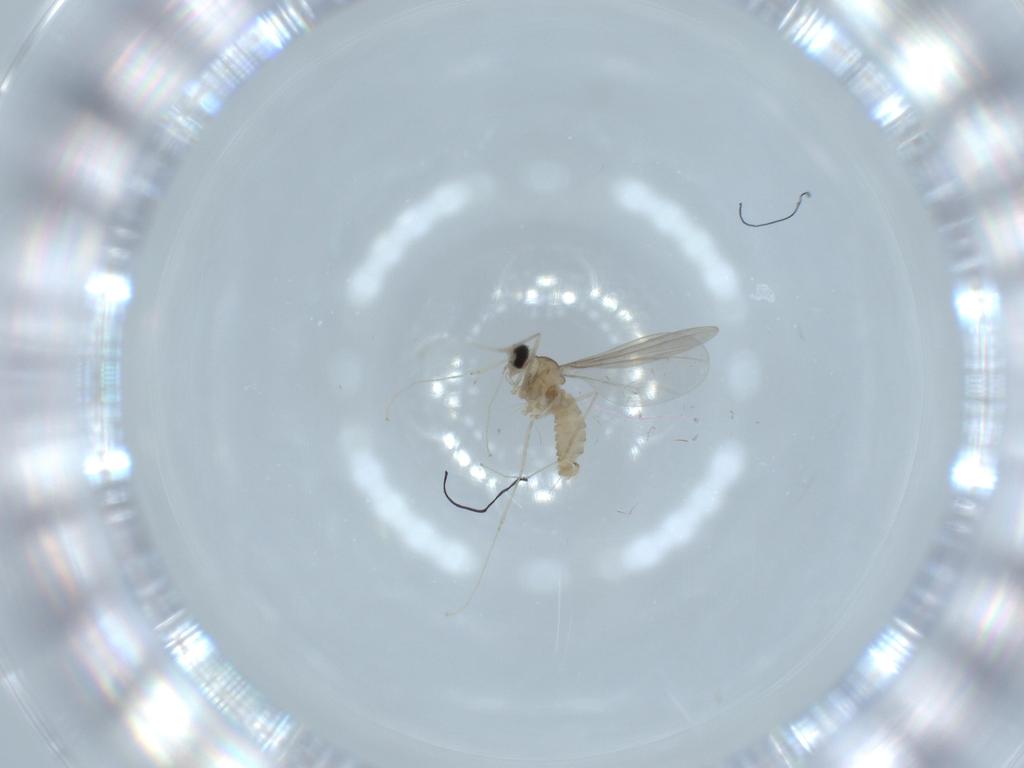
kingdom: Animalia
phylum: Arthropoda
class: Insecta
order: Diptera
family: Cecidomyiidae
